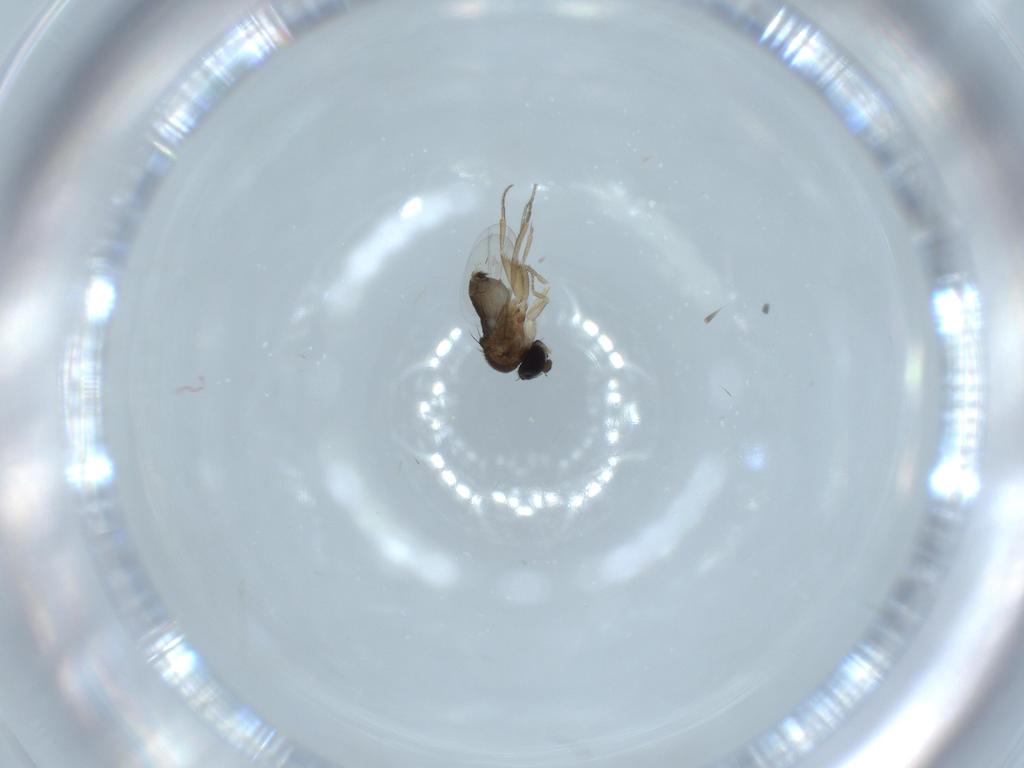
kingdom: Animalia
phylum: Arthropoda
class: Insecta
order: Diptera
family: Phoridae
